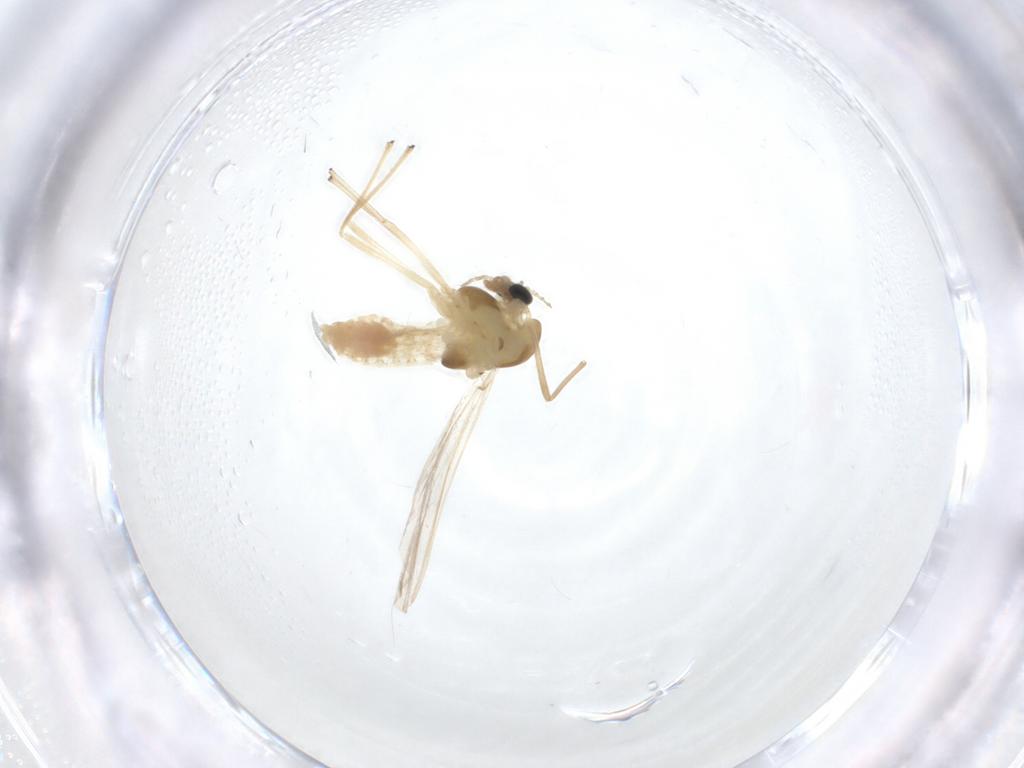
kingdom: Animalia
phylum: Arthropoda
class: Insecta
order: Diptera
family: Chironomidae
